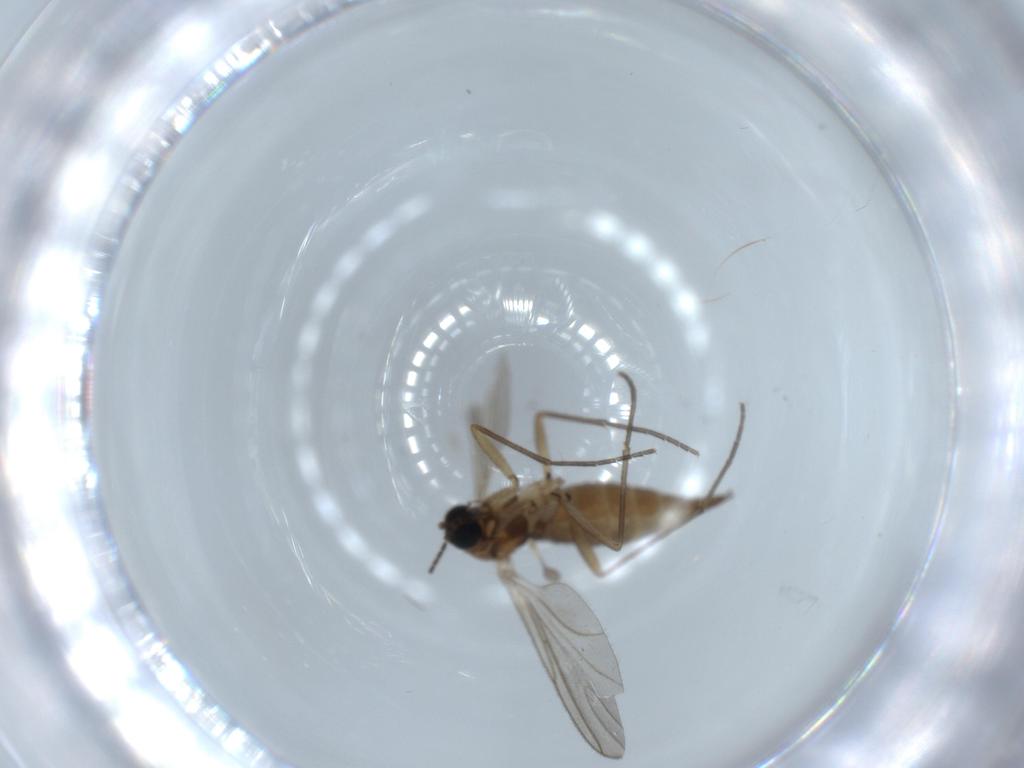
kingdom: Animalia
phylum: Arthropoda
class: Insecta
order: Diptera
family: Sciaridae
